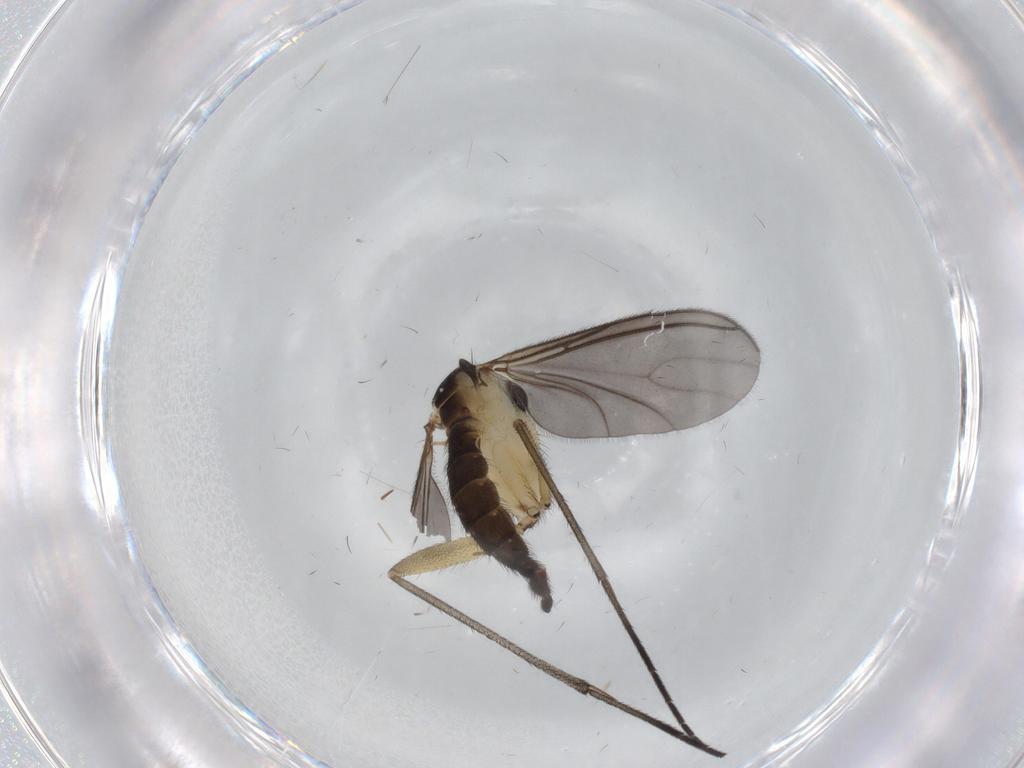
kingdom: Animalia
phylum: Arthropoda
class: Insecta
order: Diptera
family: Sciaridae
